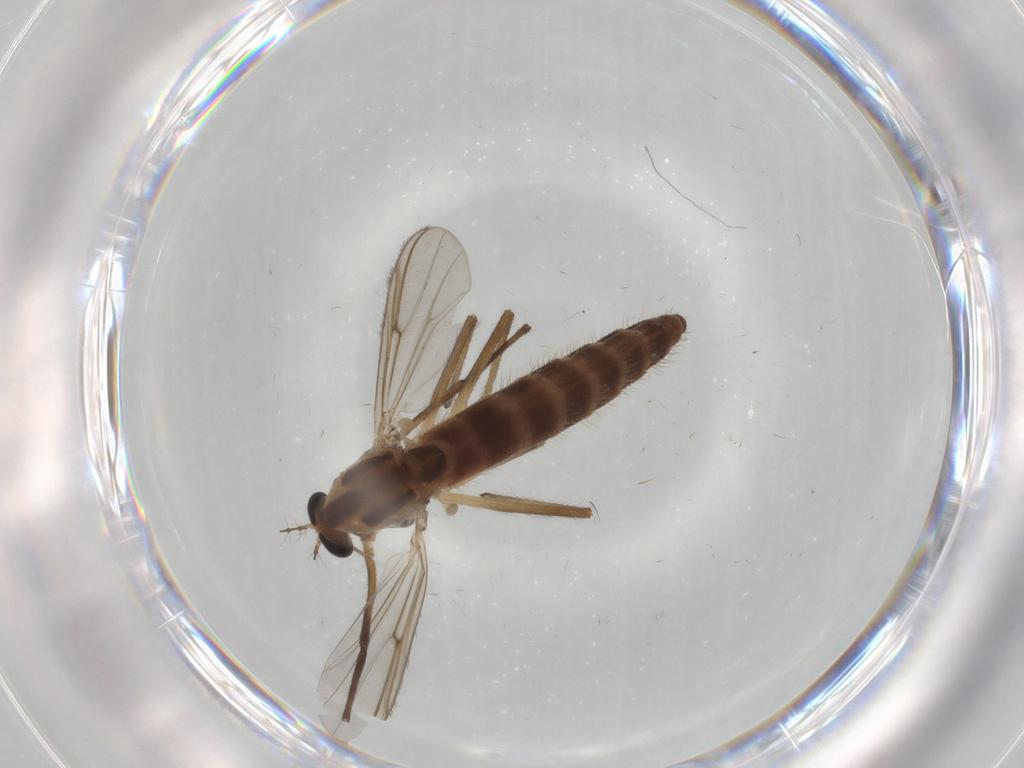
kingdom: Animalia
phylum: Arthropoda
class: Insecta
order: Diptera
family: Chironomidae
